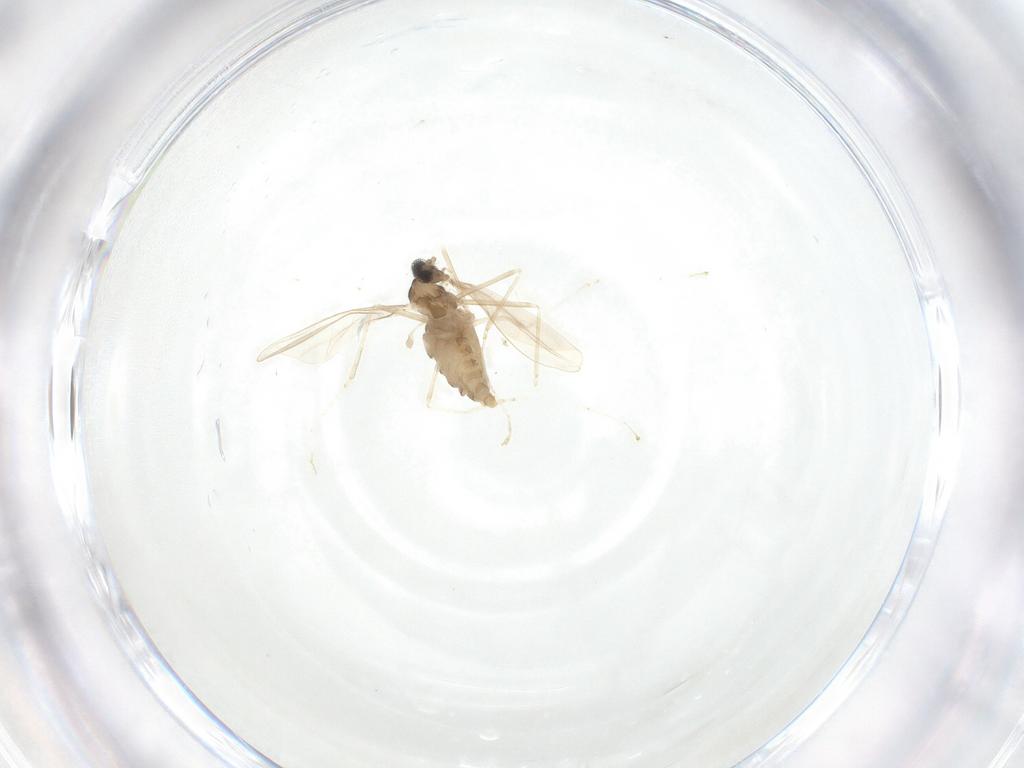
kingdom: Animalia
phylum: Arthropoda
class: Insecta
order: Diptera
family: Cecidomyiidae
